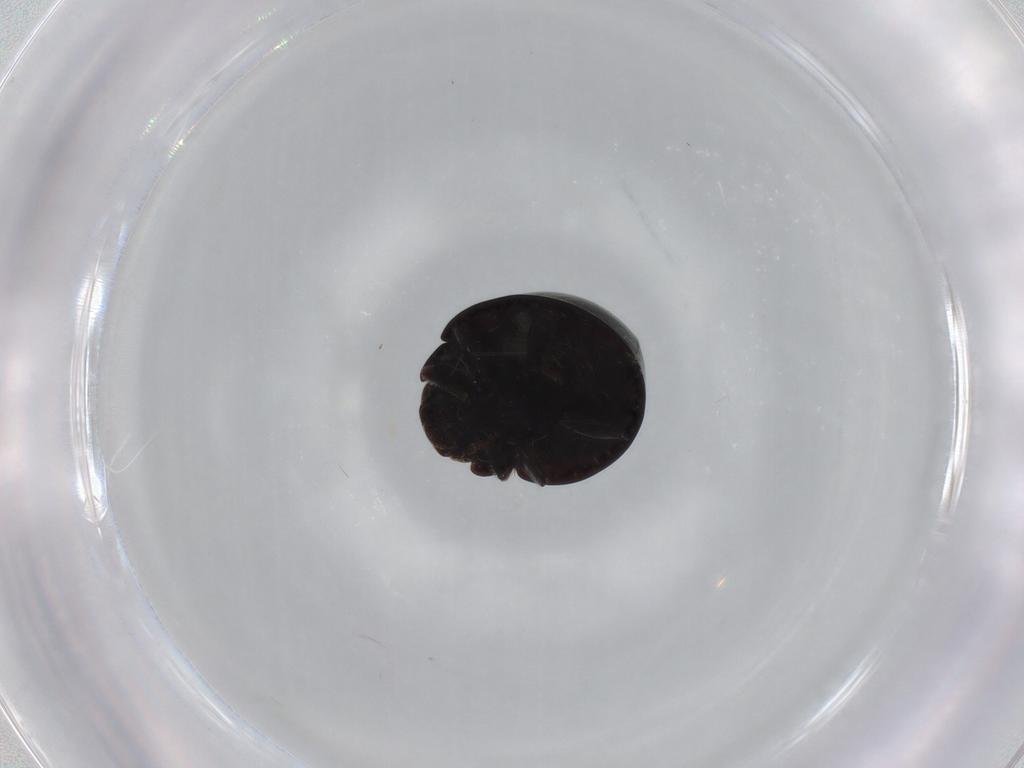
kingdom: Animalia
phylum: Arthropoda
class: Insecta
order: Coleoptera
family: Coccinellidae
